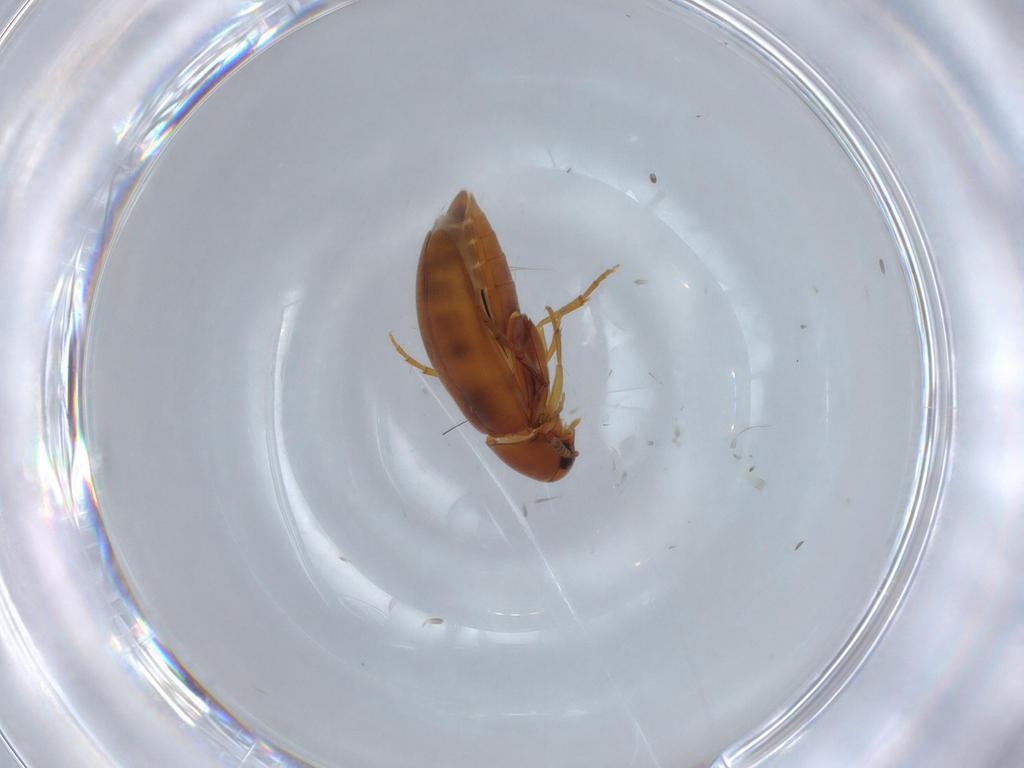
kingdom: Animalia
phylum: Arthropoda
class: Insecta
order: Coleoptera
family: Scraptiidae
